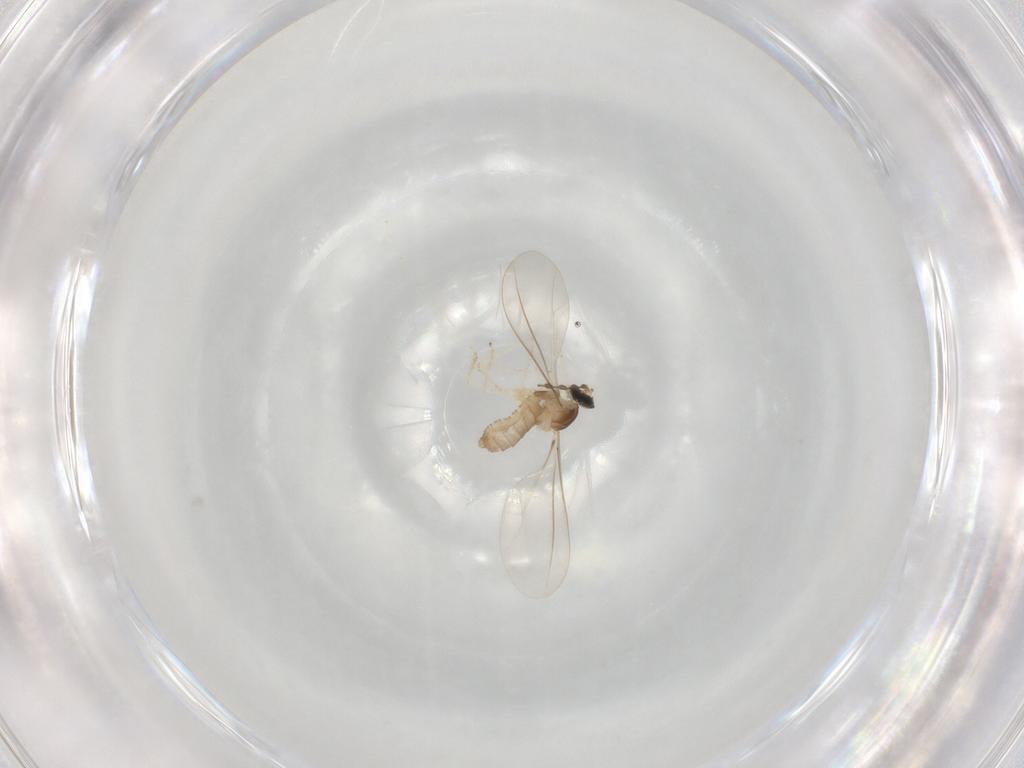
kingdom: Animalia
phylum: Arthropoda
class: Insecta
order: Diptera
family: Cecidomyiidae
